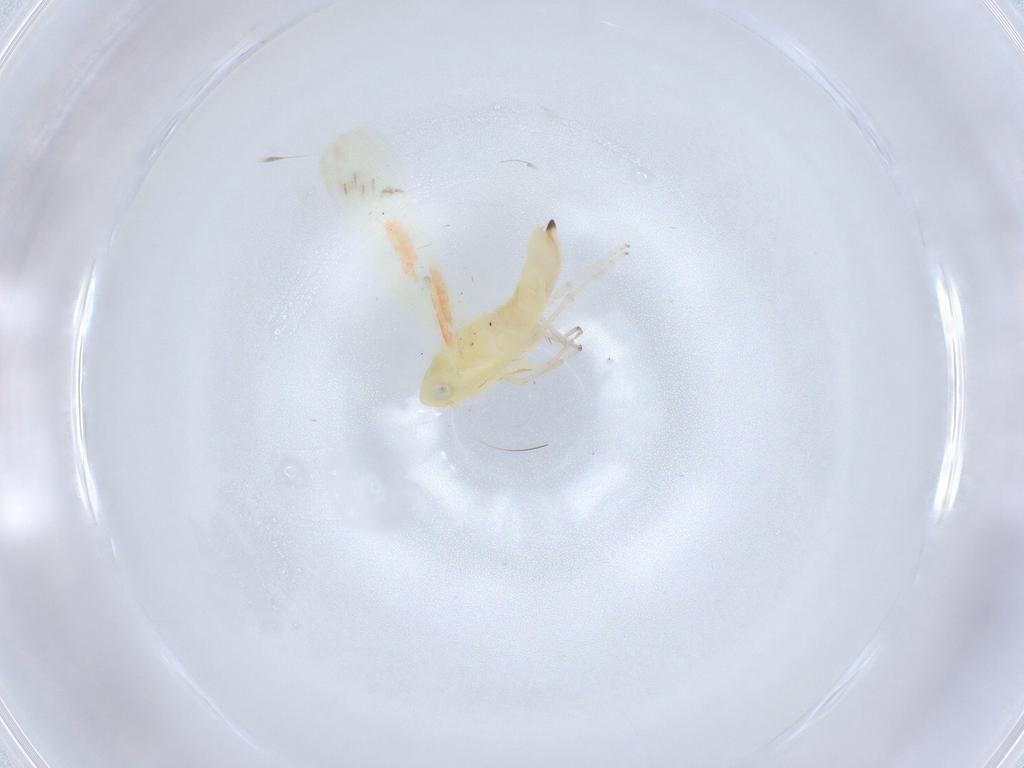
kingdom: Animalia
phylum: Arthropoda
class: Insecta
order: Hemiptera
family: Cicadellidae
